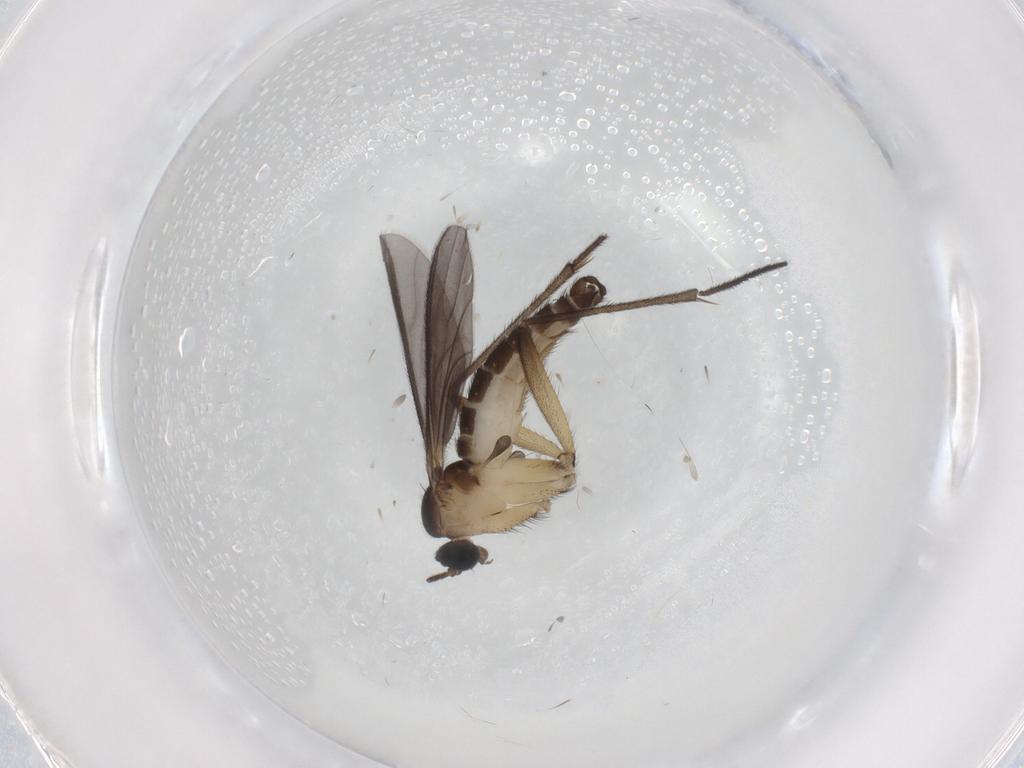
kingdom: Animalia
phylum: Arthropoda
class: Insecta
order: Diptera
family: Sciaridae
